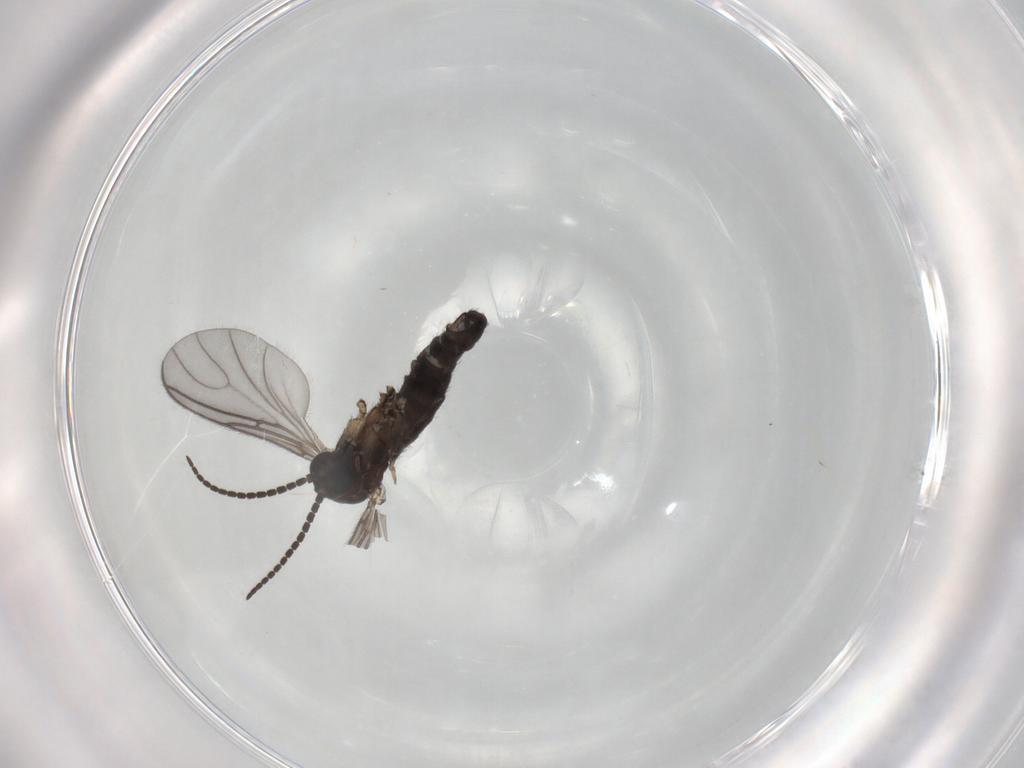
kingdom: Animalia
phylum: Arthropoda
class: Insecta
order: Diptera
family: Sciaridae
